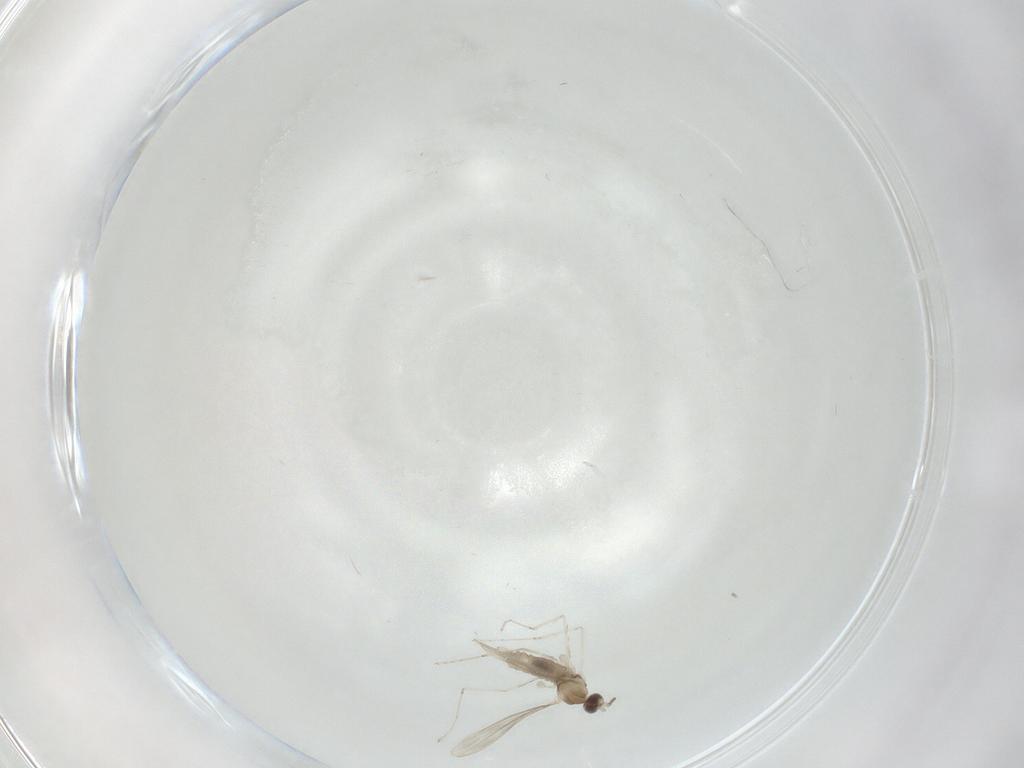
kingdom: Animalia
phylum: Arthropoda
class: Insecta
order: Diptera
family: Cecidomyiidae
